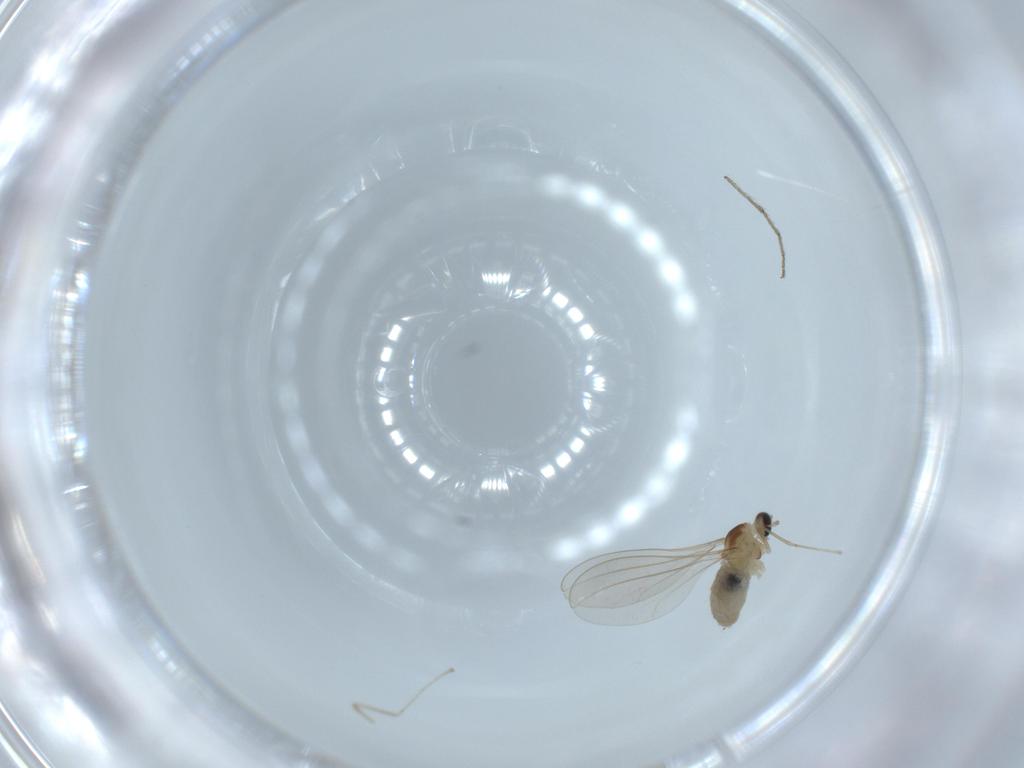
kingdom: Animalia
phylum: Arthropoda
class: Insecta
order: Diptera
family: Cecidomyiidae
